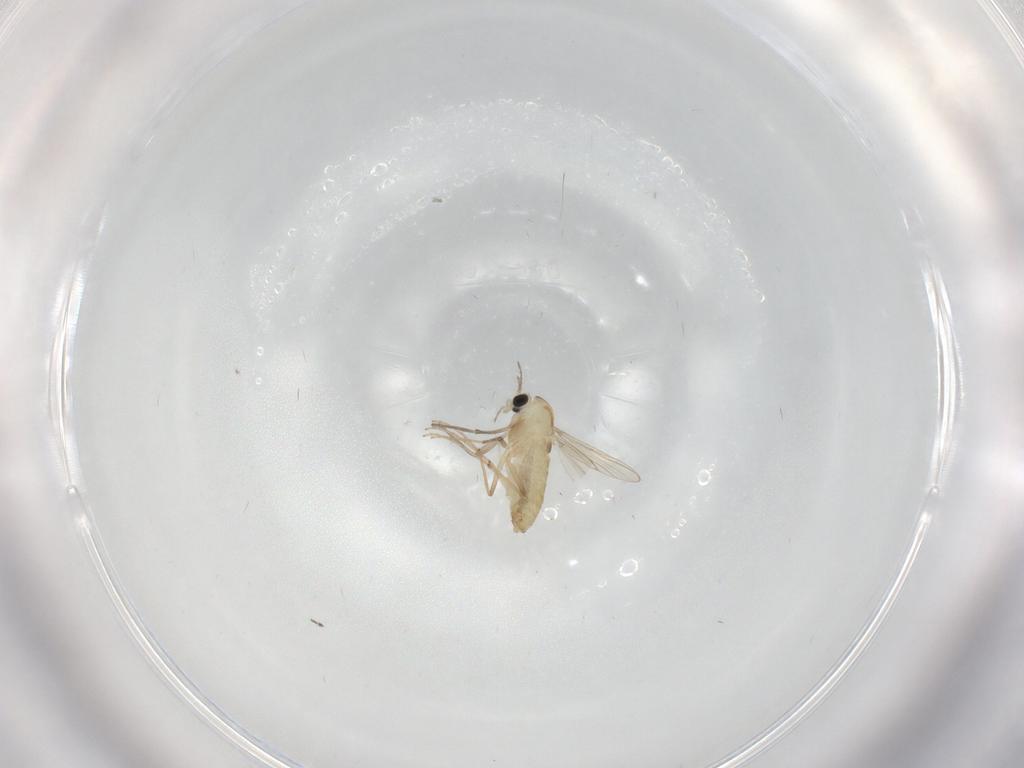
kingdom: Animalia
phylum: Arthropoda
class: Insecta
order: Diptera
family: Chironomidae
